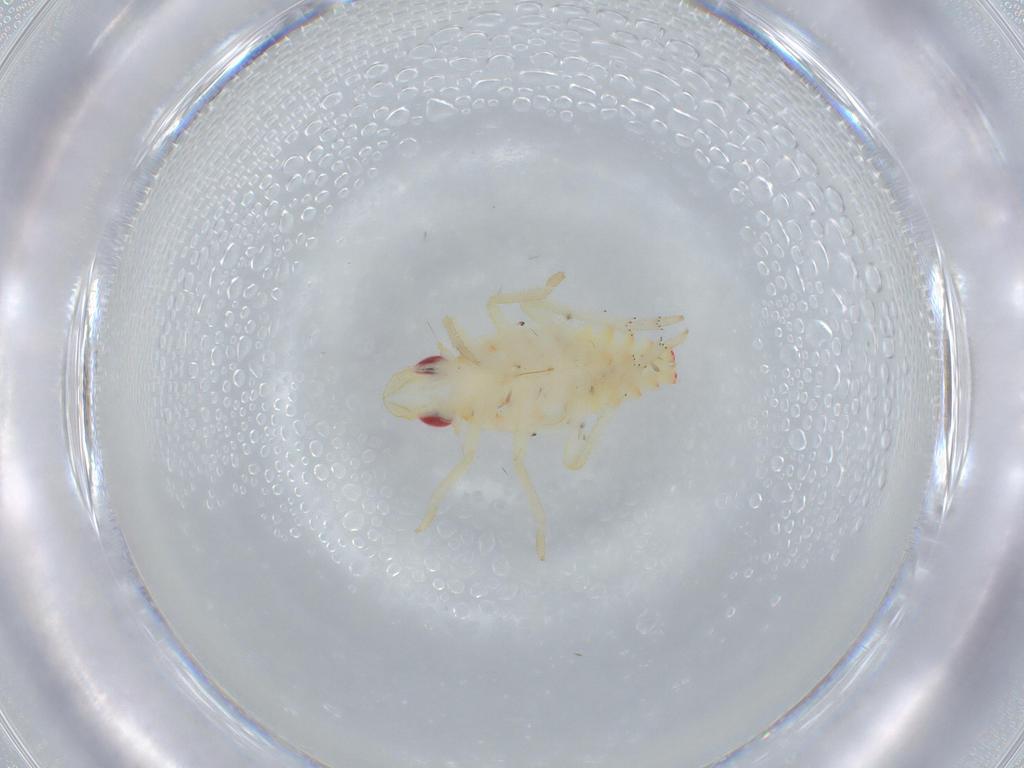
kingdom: Animalia
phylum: Arthropoda
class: Insecta
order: Hemiptera
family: Tropiduchidae
